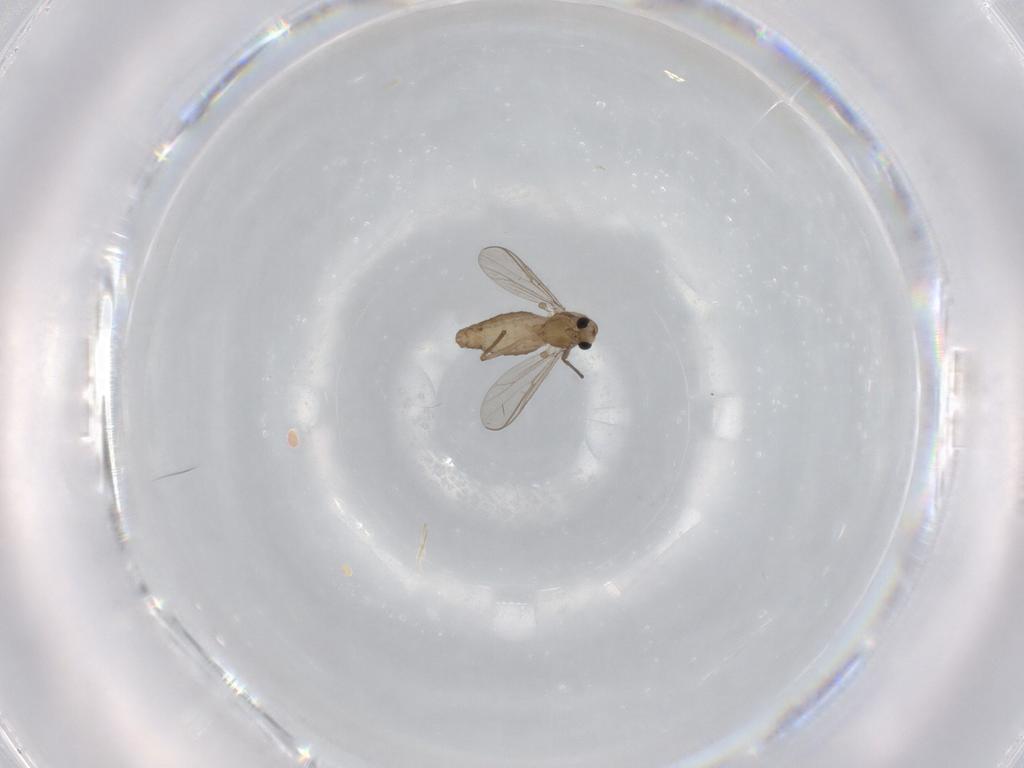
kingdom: Animalia
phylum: Arthropoda
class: Insecta
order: Diptera
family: Chironomidae
